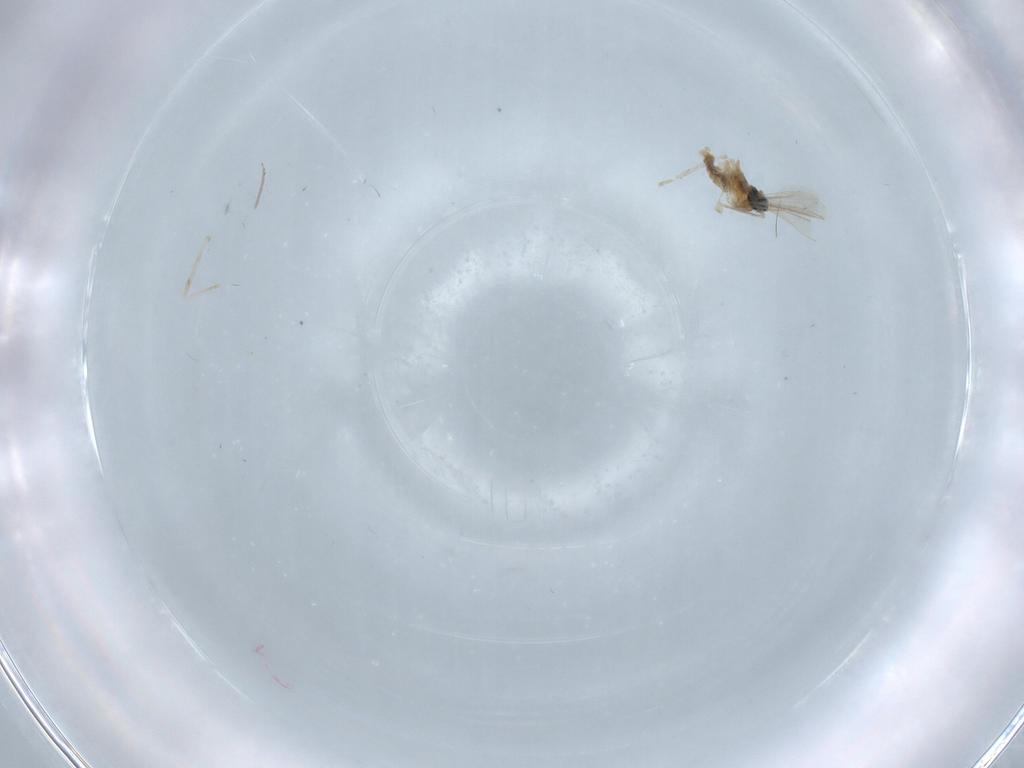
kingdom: Animalia
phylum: Arthropoda
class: Insecta
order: Diptera
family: Chironomidae
